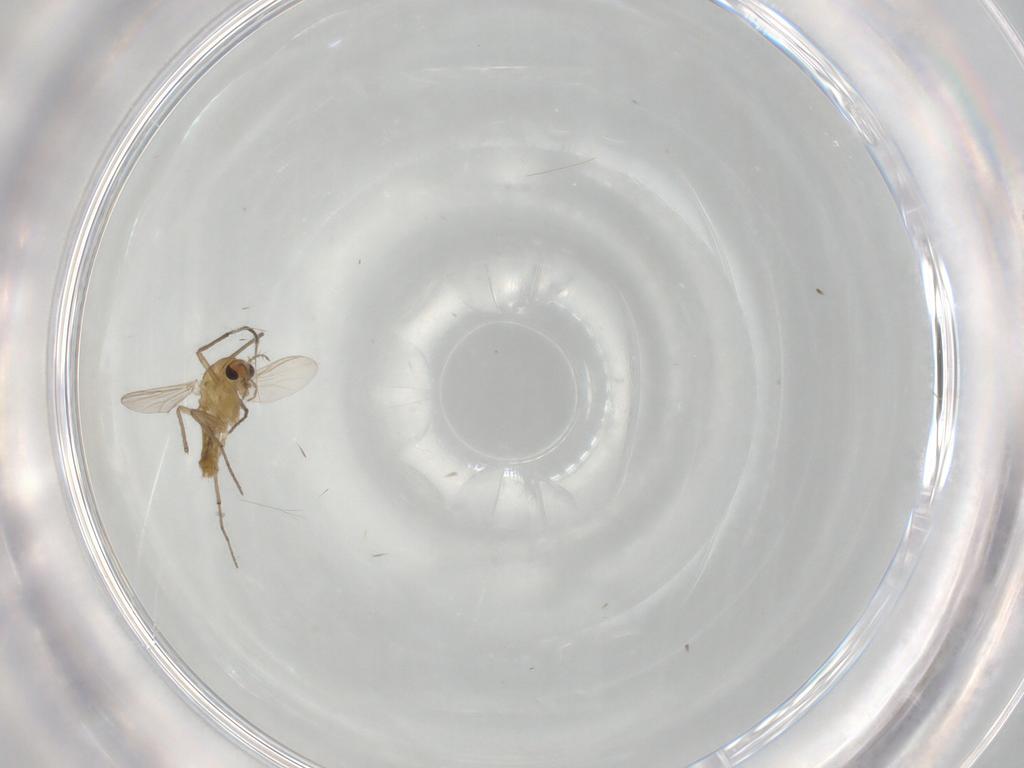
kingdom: Animalia
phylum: Arthropoda
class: Insecta
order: Diptera
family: Chironomidae
